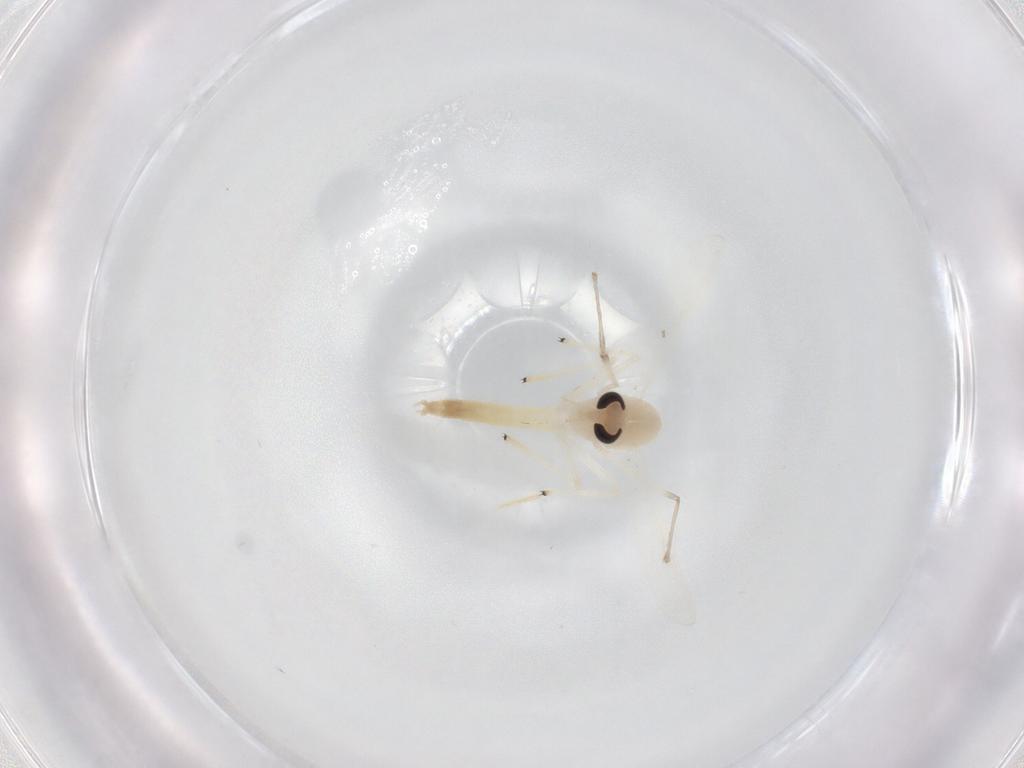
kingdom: Animalia
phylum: Arthropoda
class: Insecta
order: Diptera
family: Chironomidae
